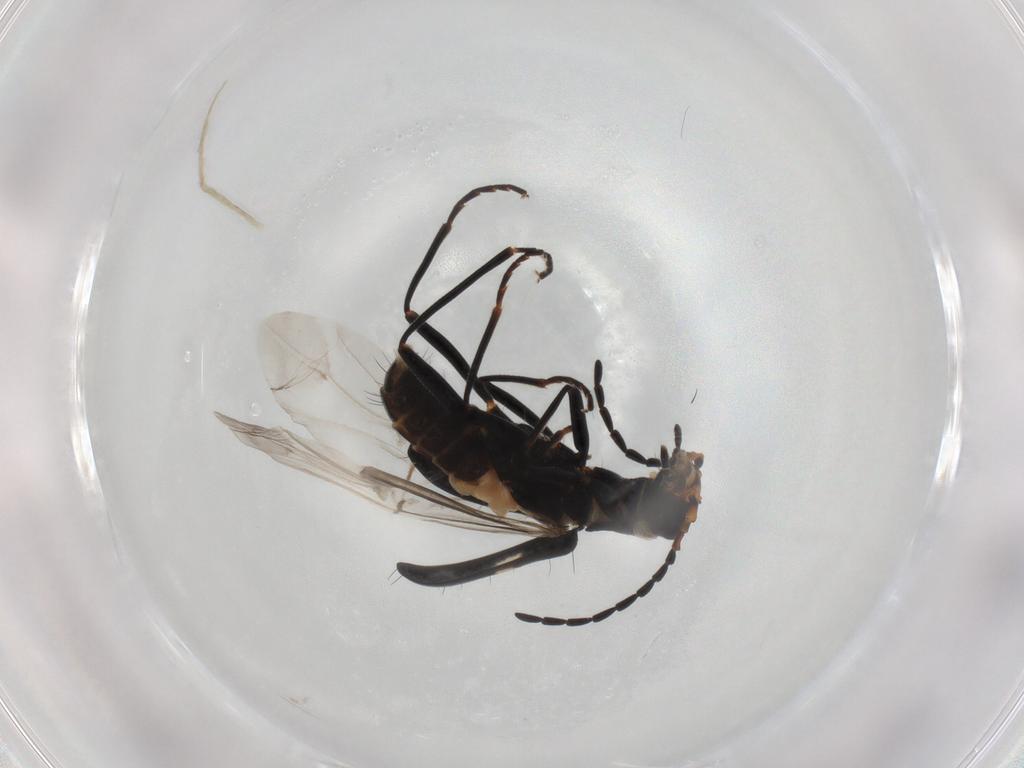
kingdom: Animalia
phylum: Arthropoda
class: Insecta
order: Coleoptera
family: Melyridae
